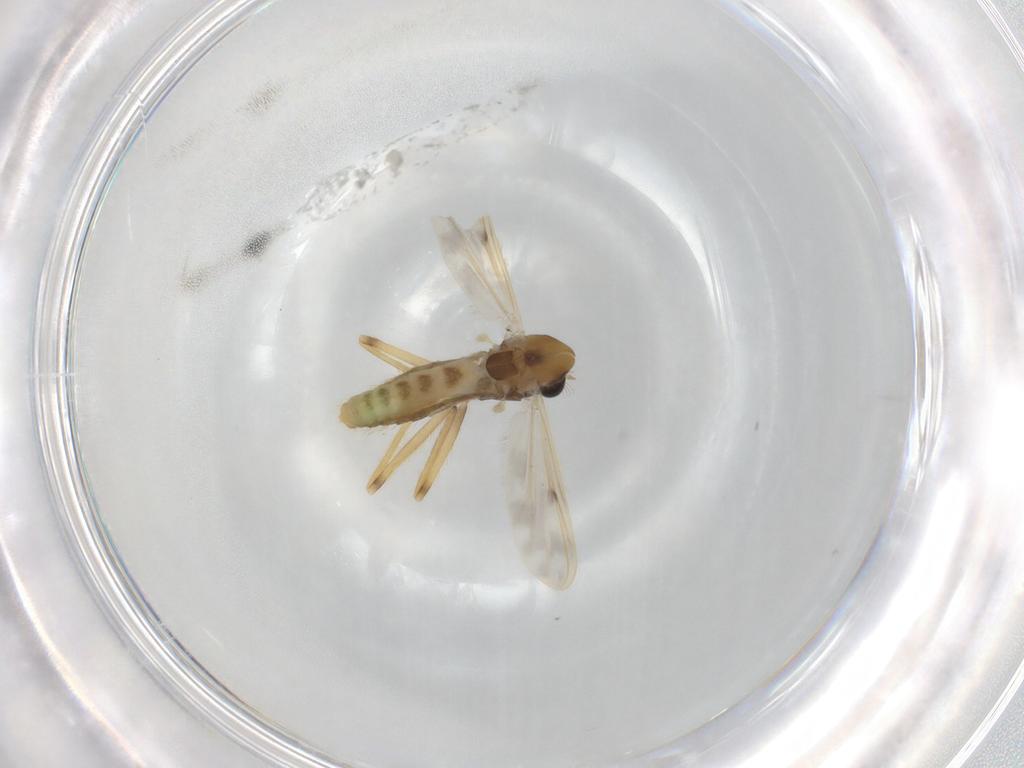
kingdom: Animalia
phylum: Arthropoda
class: Insecta
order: Diptera
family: Chironomidae
